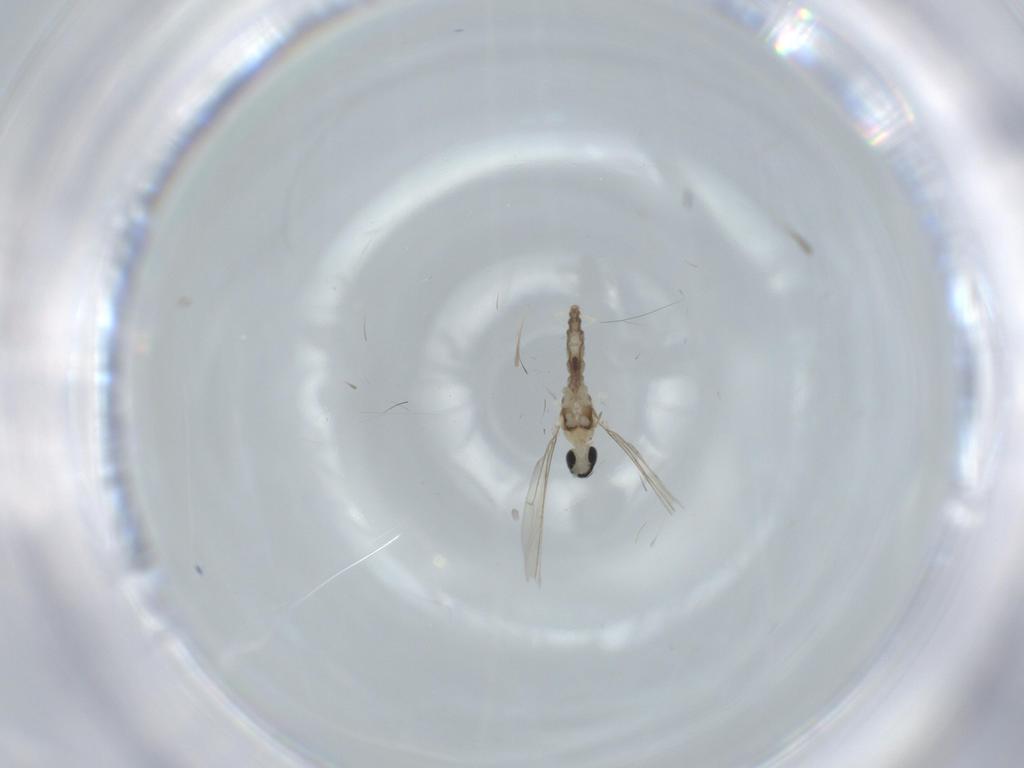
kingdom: Animalia
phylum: Arthropoda
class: Insecta
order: Diptera
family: Cecidomyiidae
